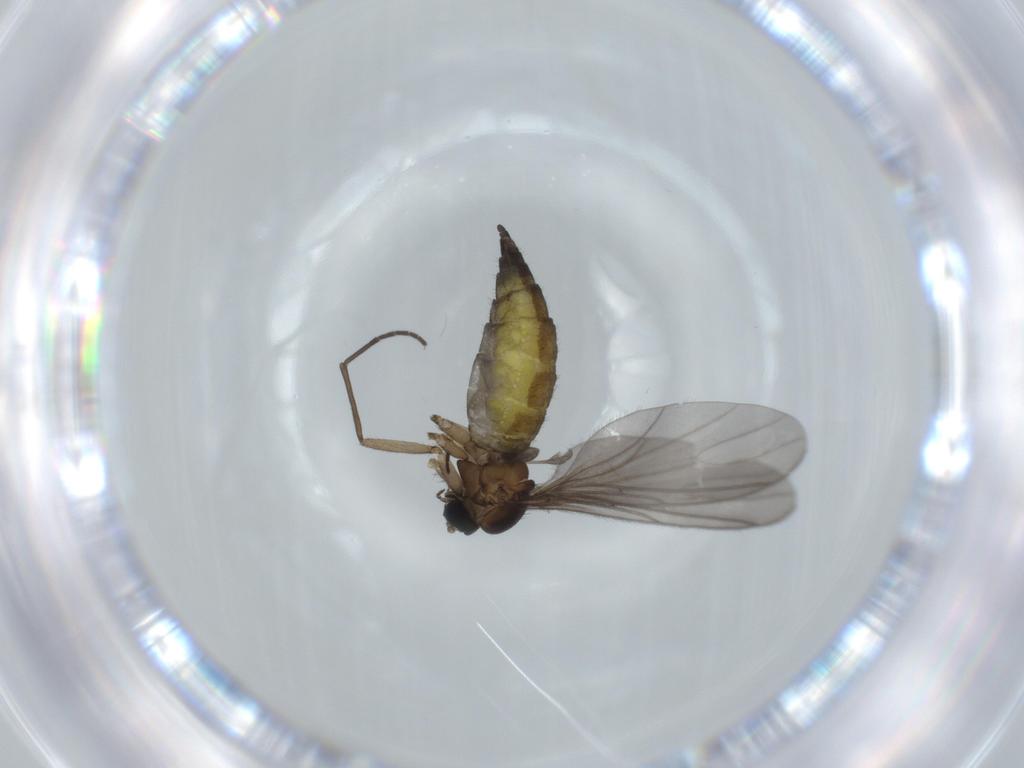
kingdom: Animalia
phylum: Arthropoda
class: Insecta
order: Diptera
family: Sciaridae
